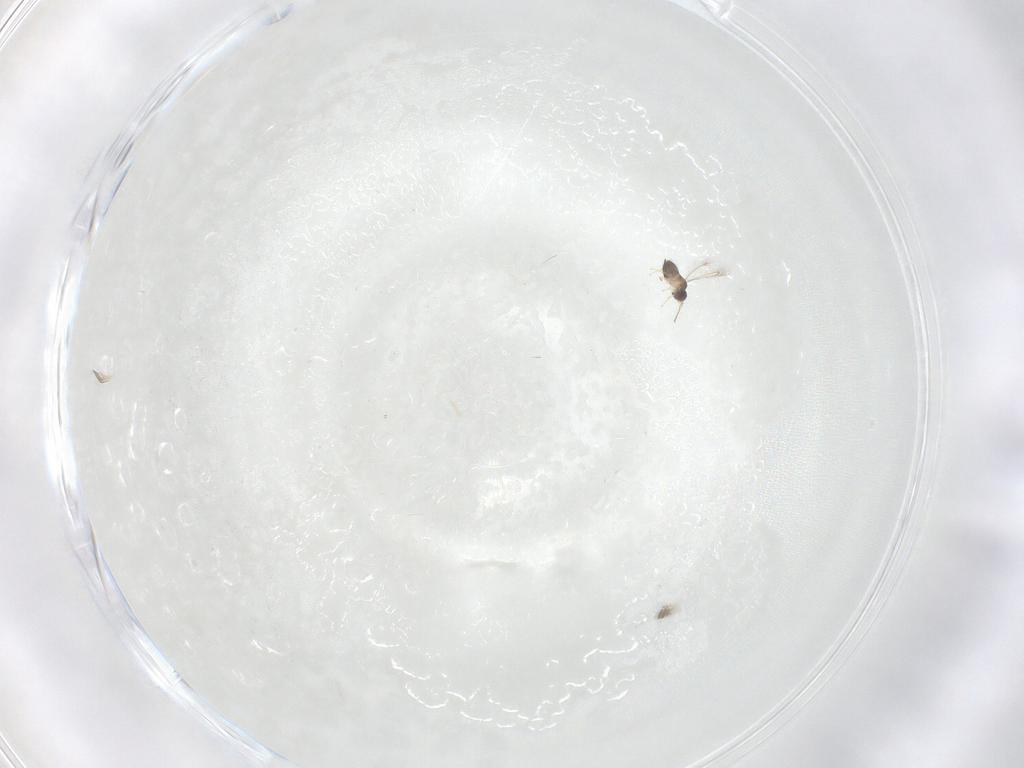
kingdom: Animalia
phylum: Arthropoda
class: Insecta
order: Hymenoptera
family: Mymaridae
